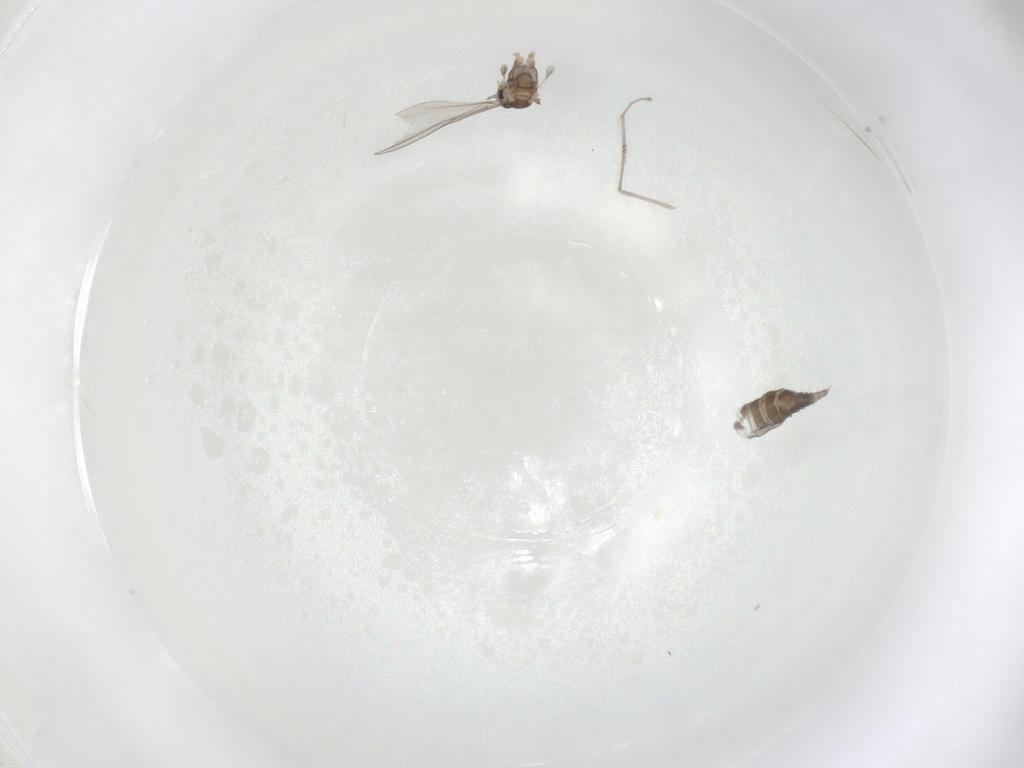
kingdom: Animalia
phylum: Arthropoda
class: Insecta
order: Diptera
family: Cecidomyiidae
